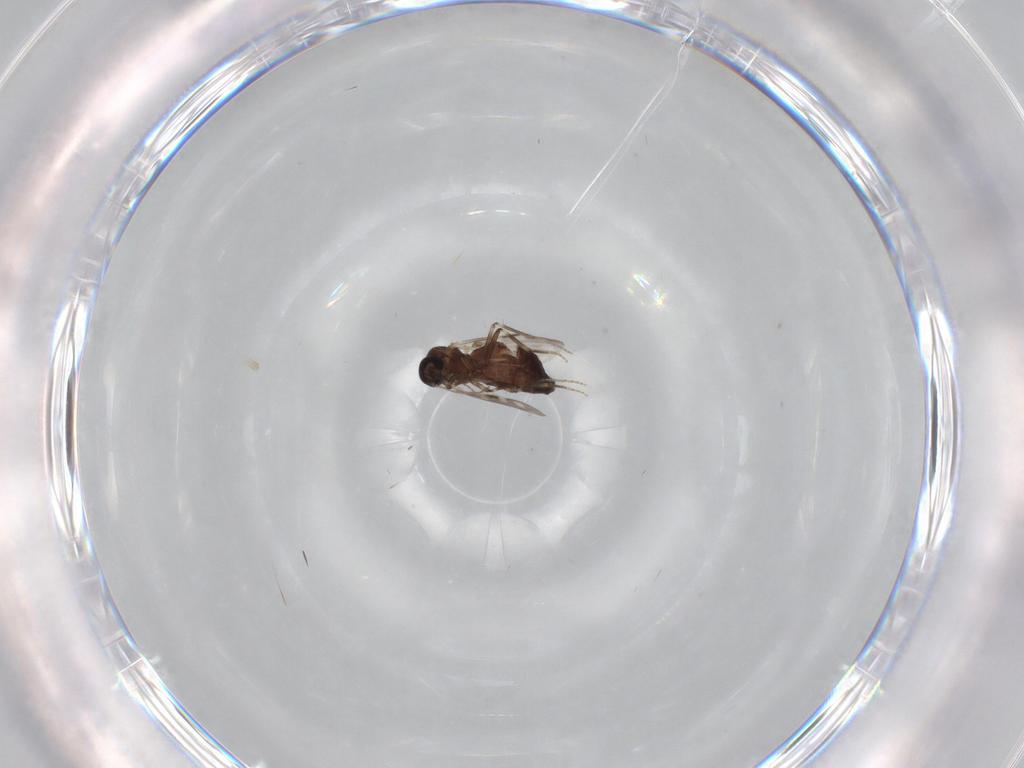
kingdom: Animalia
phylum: Arthropoda
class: Insecta
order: Diptera
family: Ceratopogonidae
